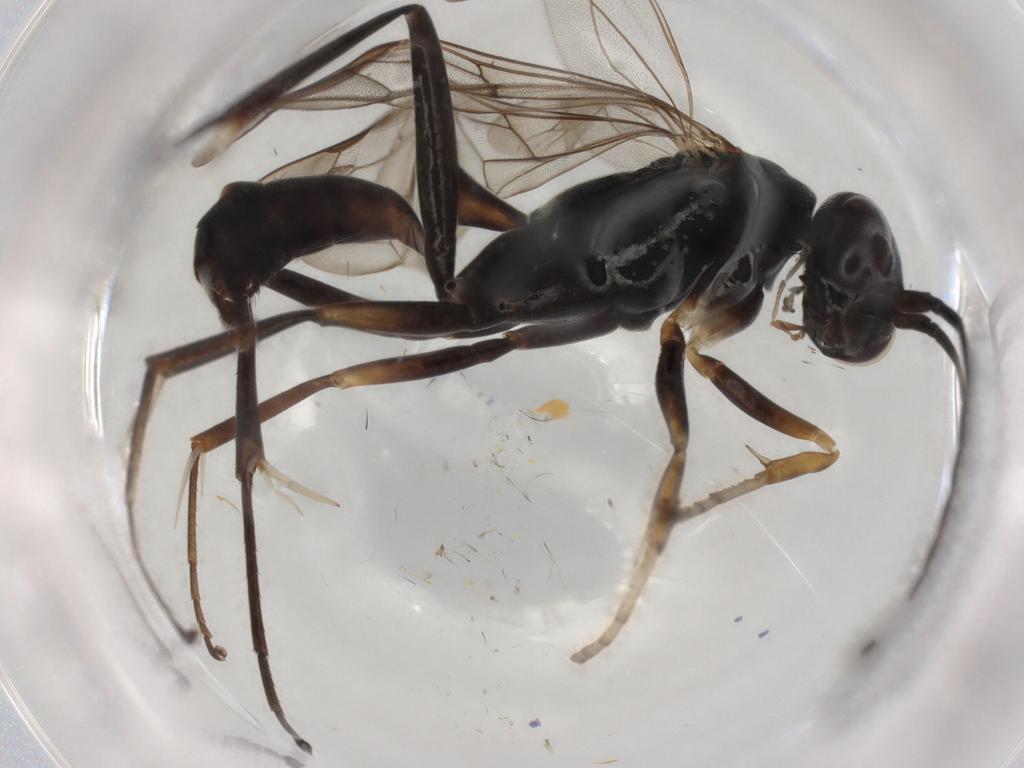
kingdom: Animalia
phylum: Arthropoda
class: Insecta
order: Hymenoptera
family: Pompilidae
